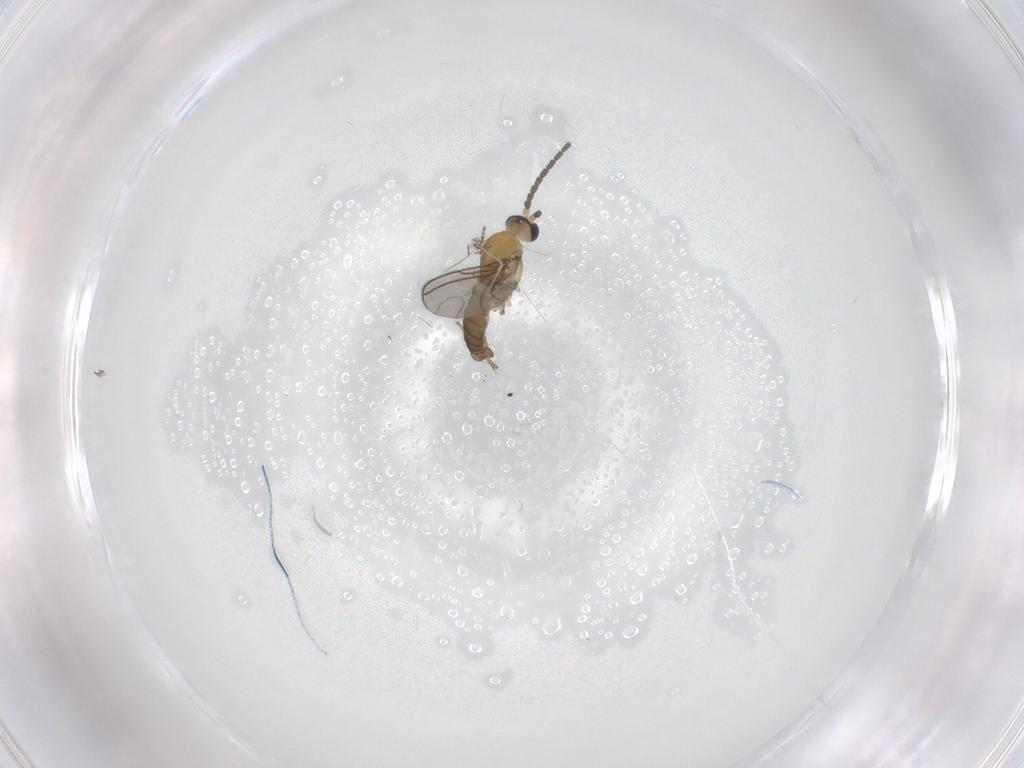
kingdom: Animalia
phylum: Arthropoda
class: Insecta
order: Diptera
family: Sciaridae
